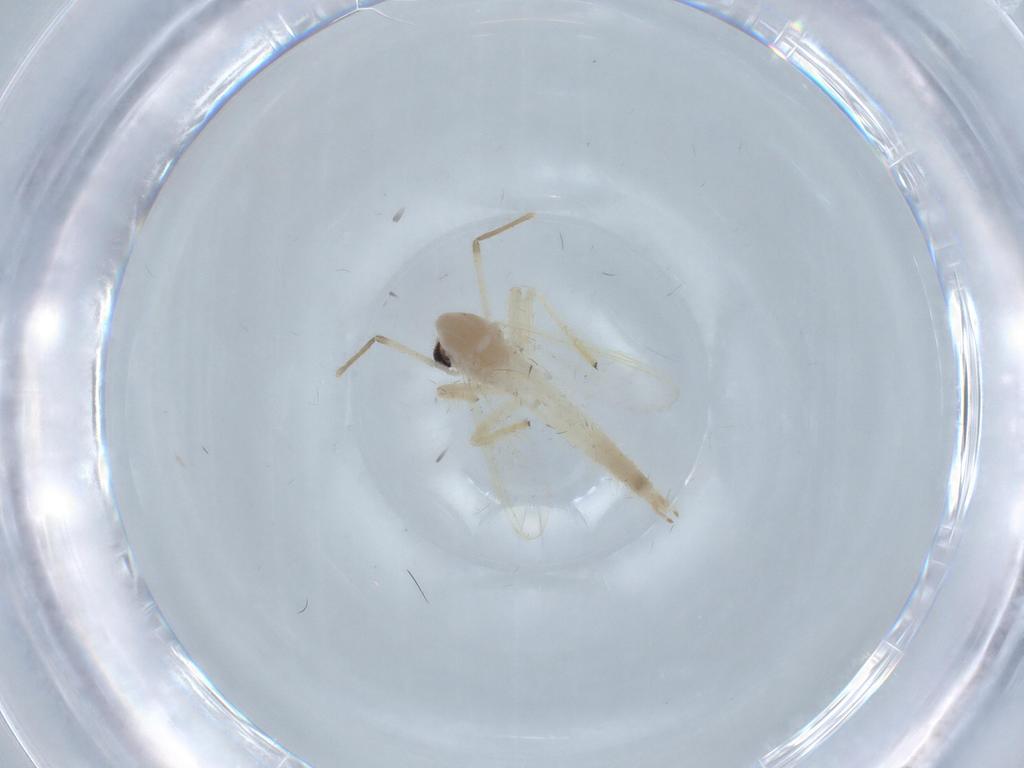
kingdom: Animalia
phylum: Arthropoda
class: Insecta
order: Diptera
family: Chironomidae
